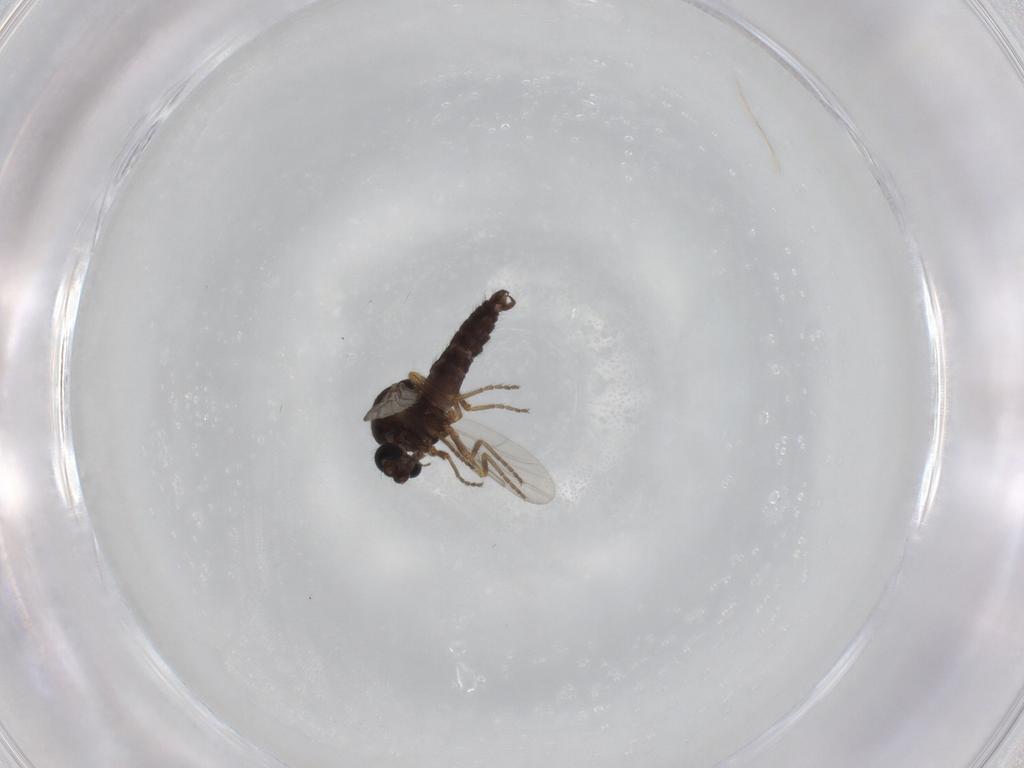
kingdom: Animalia
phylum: Arthropoda
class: Insecta
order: Diptera
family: Ceratopogonidae
